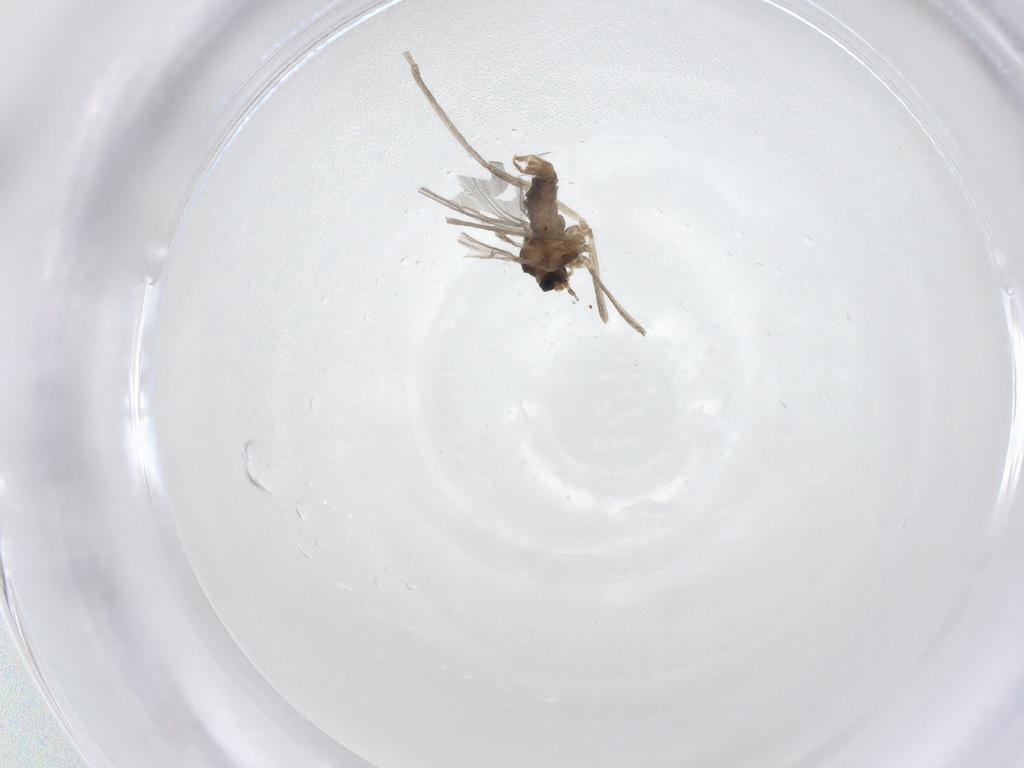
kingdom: Animalia
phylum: Arthropoda
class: Insecta
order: Diptera
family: Cecidomyiidae
